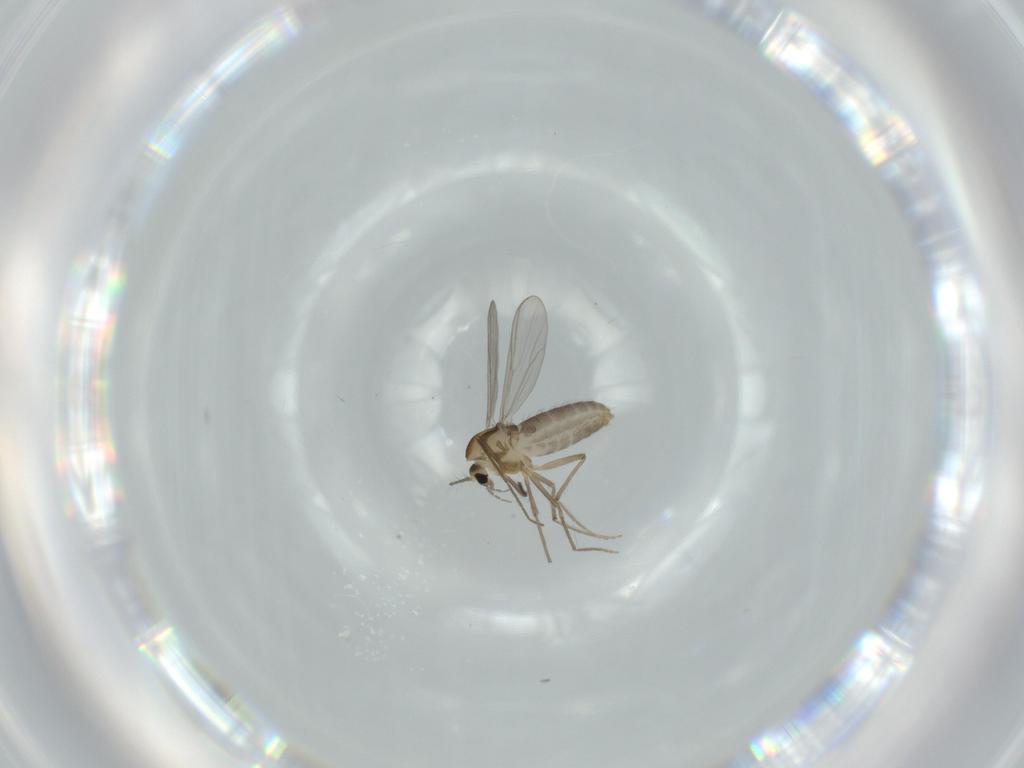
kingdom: Animalia
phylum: Arthropoda
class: Insecta
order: Diptera
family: Chironomidae
